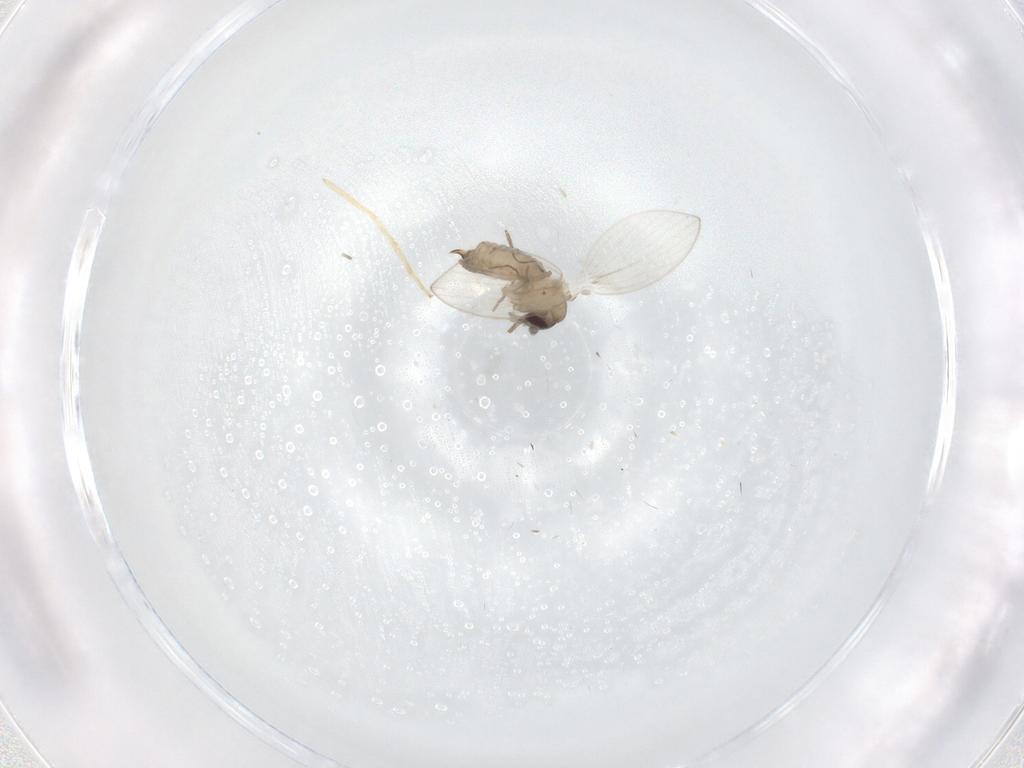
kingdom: Animalia
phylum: Arthropoda
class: Insecta
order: Diptera
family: Psychodidae
